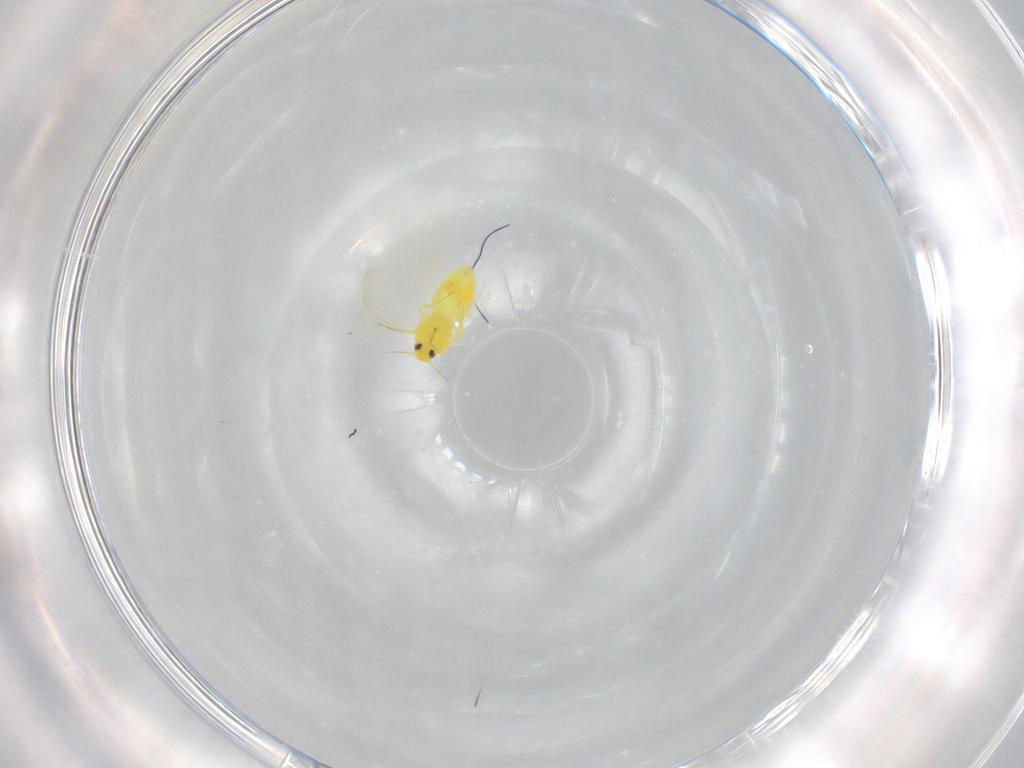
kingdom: Animalia
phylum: Arthropoda
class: Insecta
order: Hemiptera
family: Aleyrodidae
